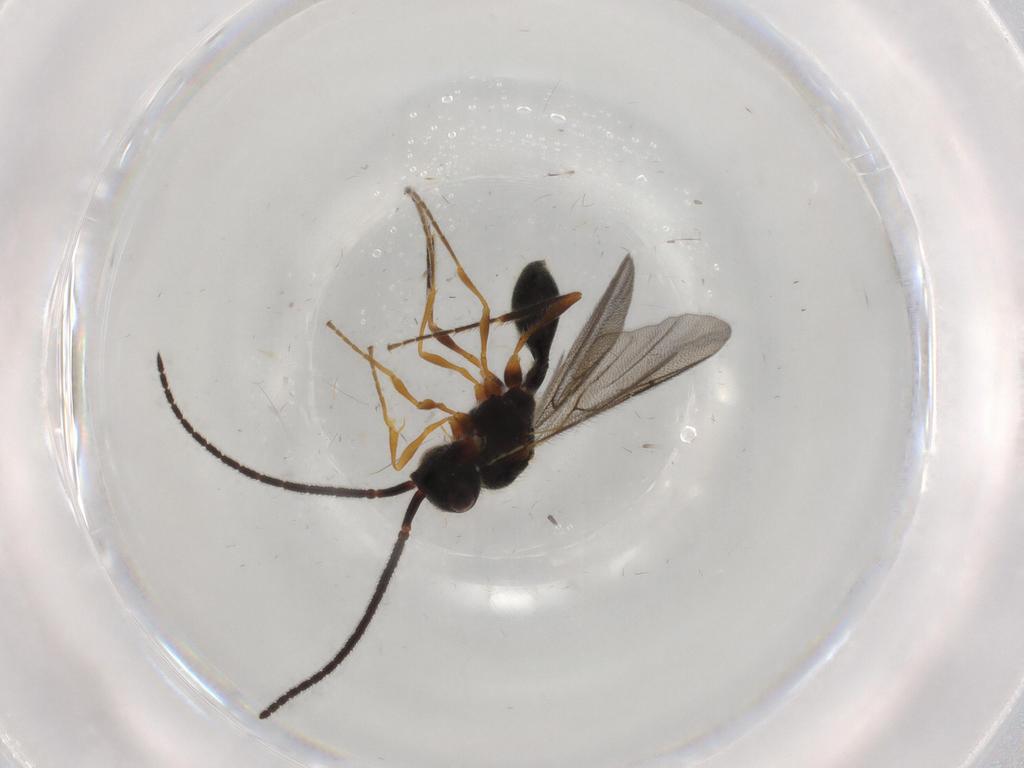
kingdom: Animalia
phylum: Arthropoda
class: Insecta
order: Hymenoptera
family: Diapriidae
